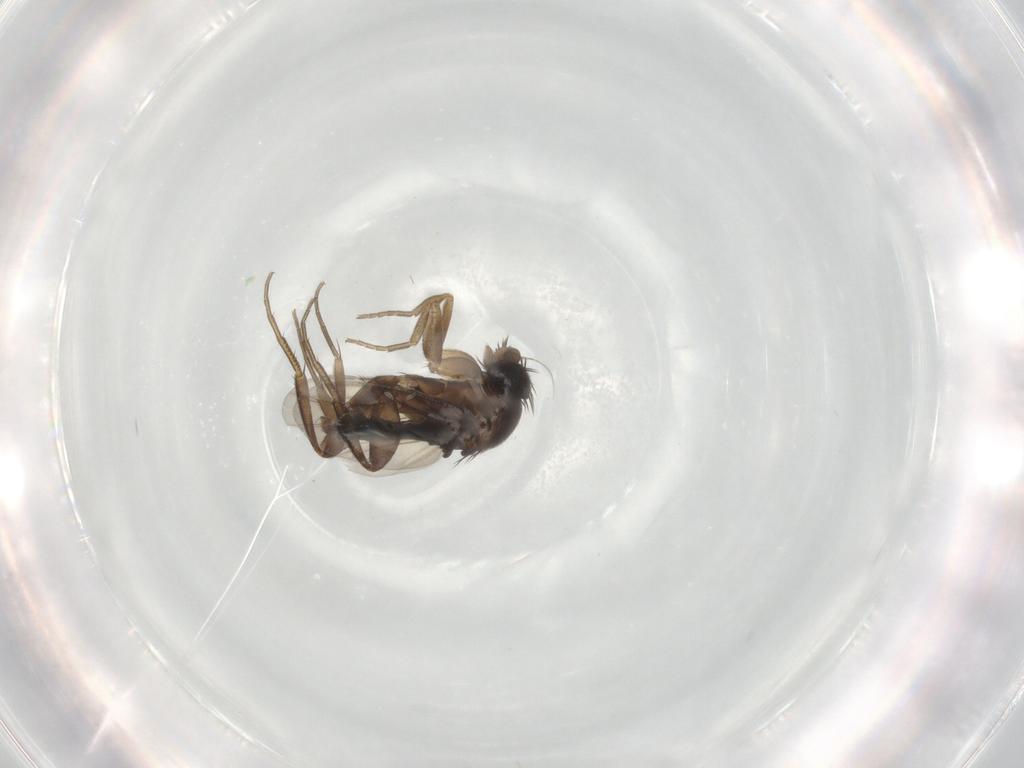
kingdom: Animalia
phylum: Arthropoda
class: Insecta
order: Diptera
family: Phoridae
